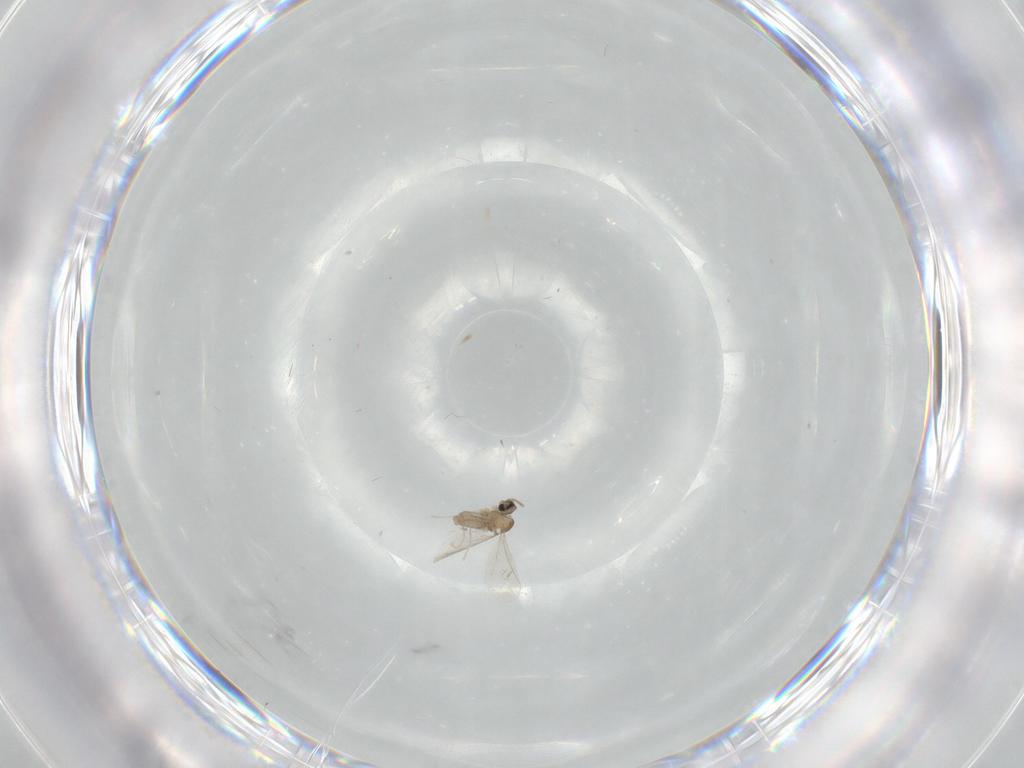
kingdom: Animalia
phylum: Arthropoda
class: Insecta
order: Diptera
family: Cecidomyiidae
